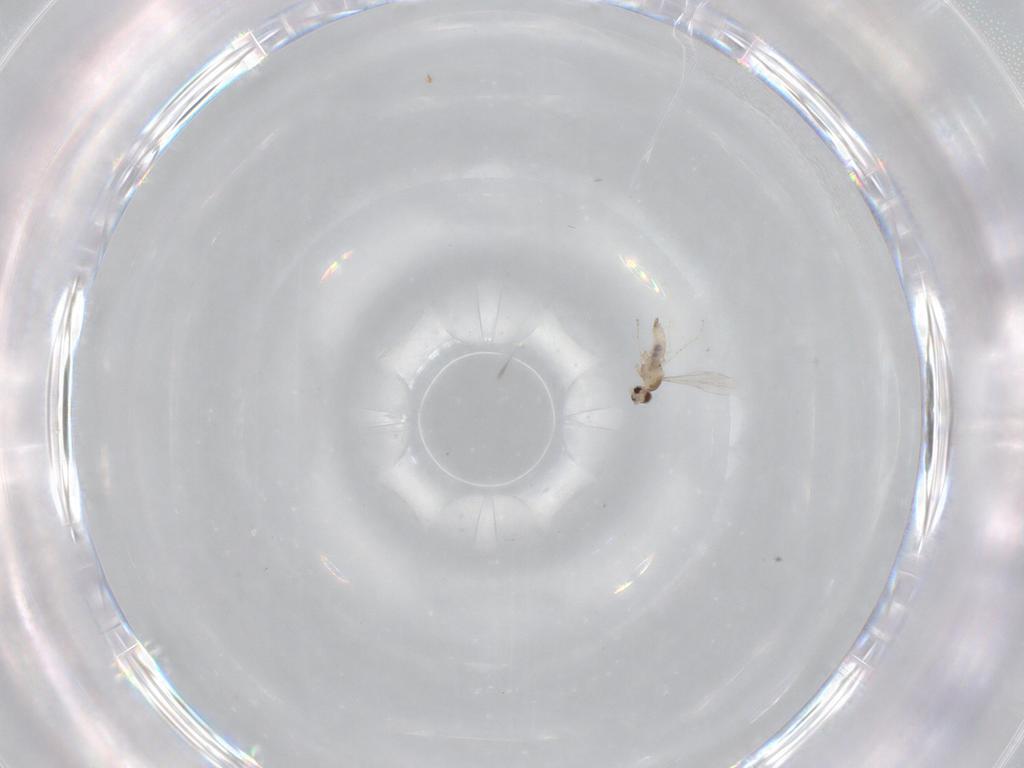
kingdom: Animalia
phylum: Arthropoda
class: Insecta
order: Diptera
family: Cecidomyiidae
